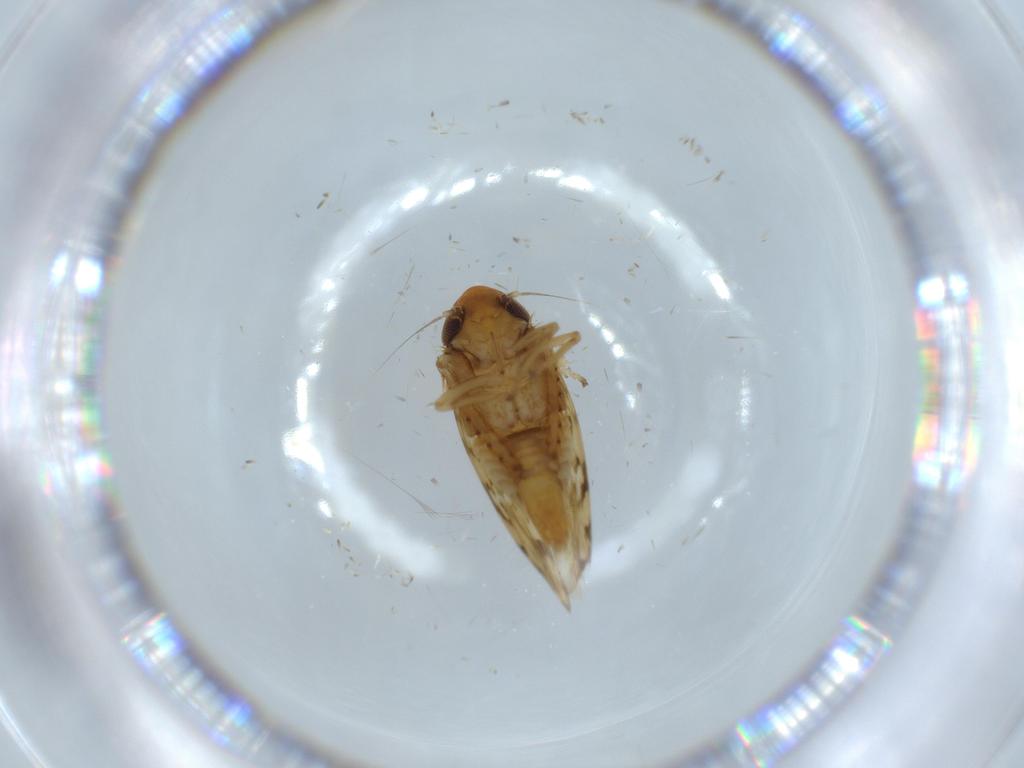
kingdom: Animalia
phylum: Arthropoda
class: Insecta
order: Hemiptera
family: Cicadellidae
